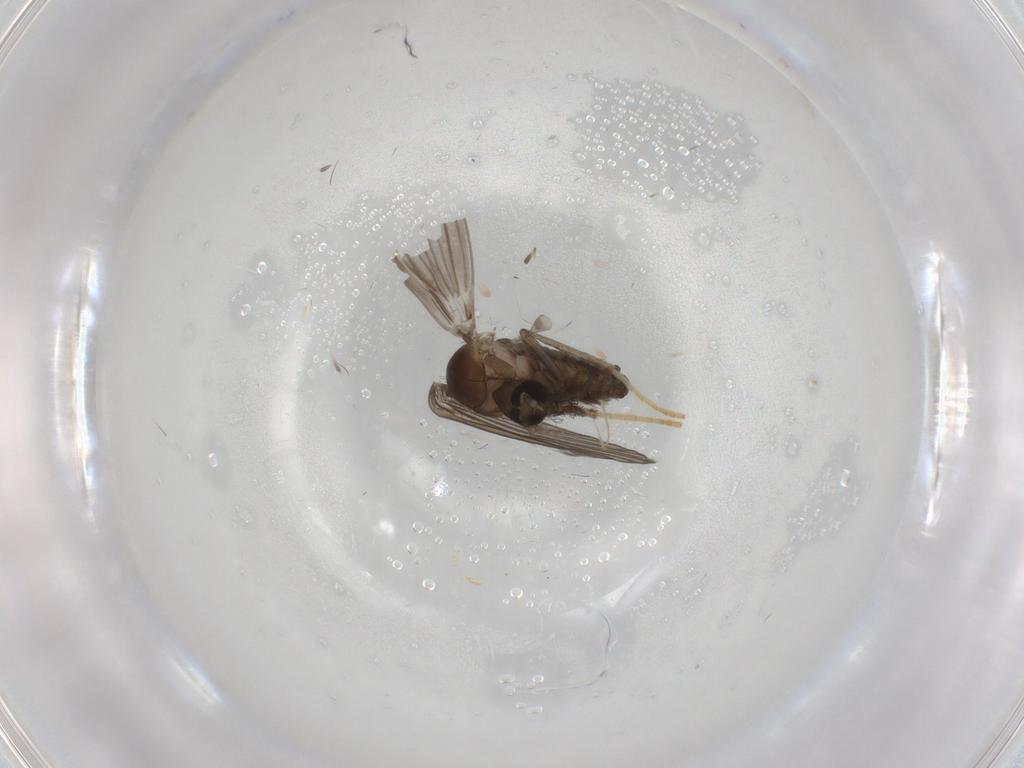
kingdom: Animalia
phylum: Arthropoda
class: Insecta
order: Diptera
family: Psychodidae
